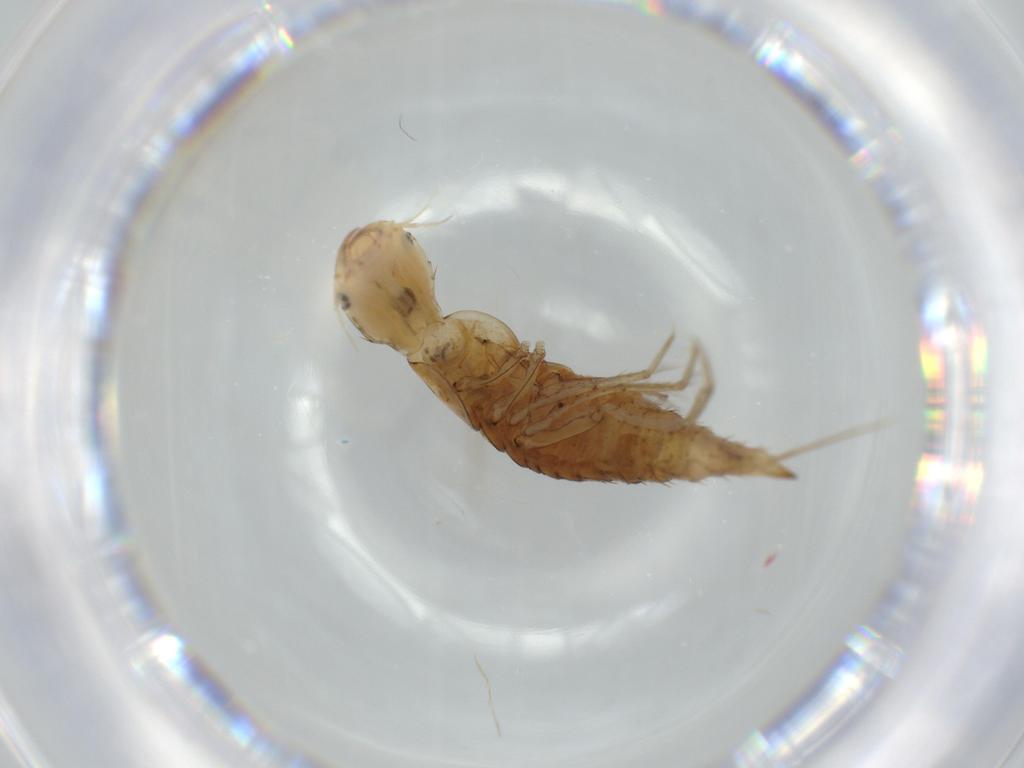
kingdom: Animalia
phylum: Arthropoda
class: Insecta
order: Coleoptera
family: Dytiscidae
